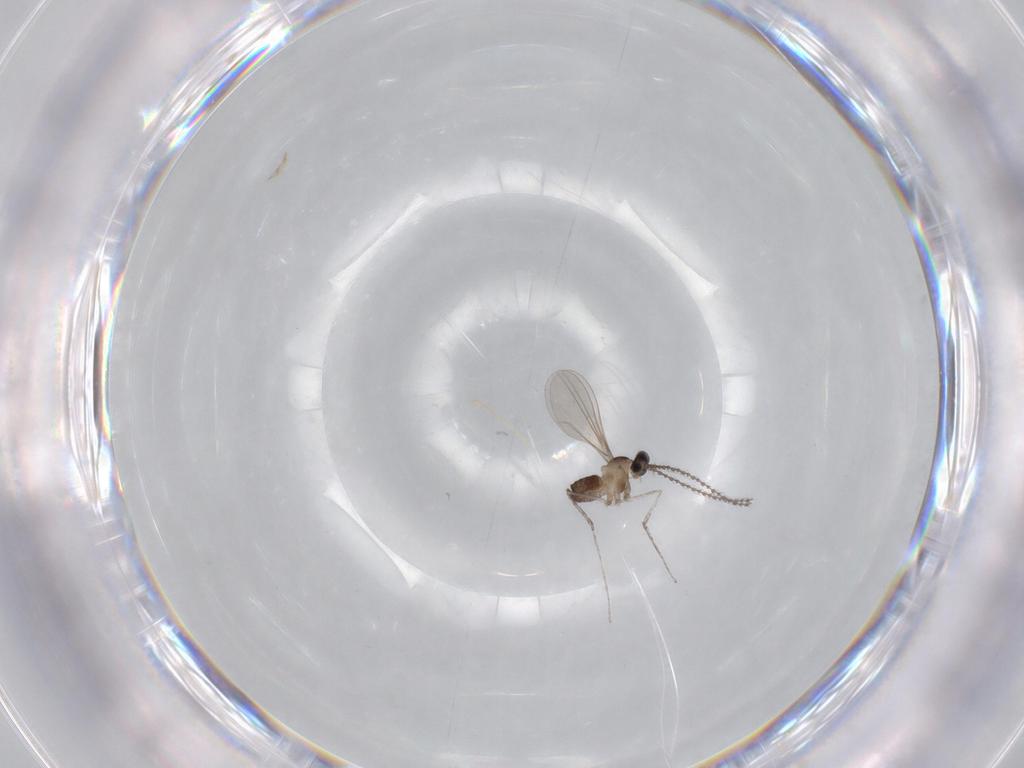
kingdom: Animalia
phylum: Arthropoda
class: Insecta
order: Diptera
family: Cecidomyiidae
